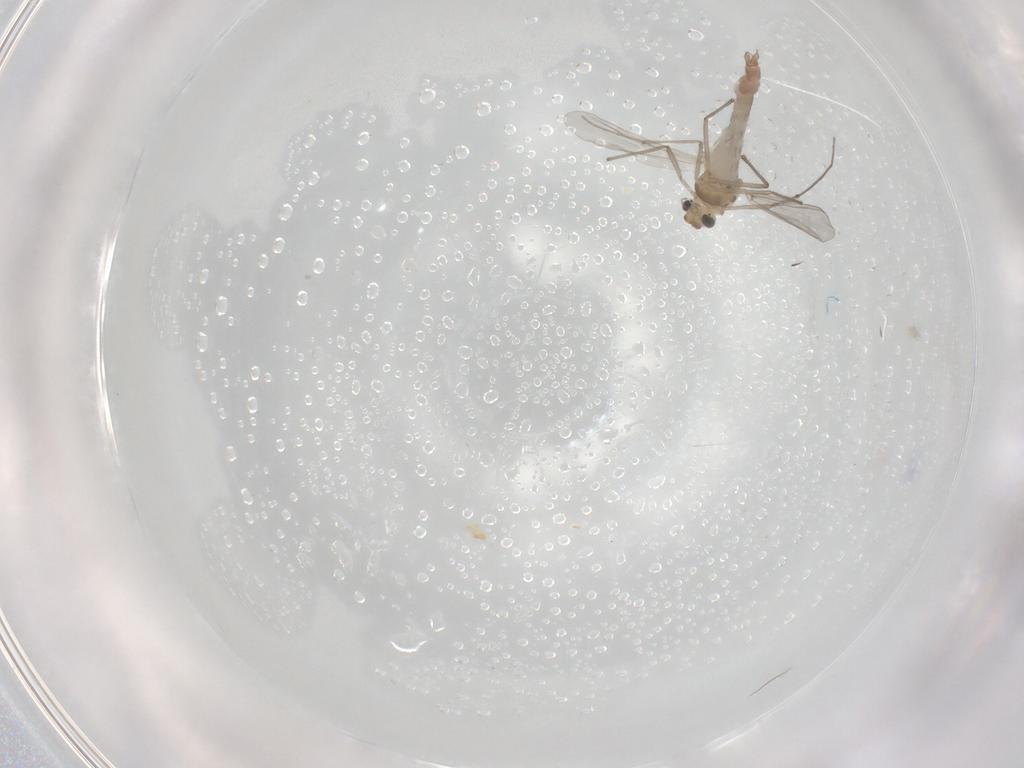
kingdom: Animalia
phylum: Arthropoda
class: Insecta
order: Diptera
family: Chironomidae
